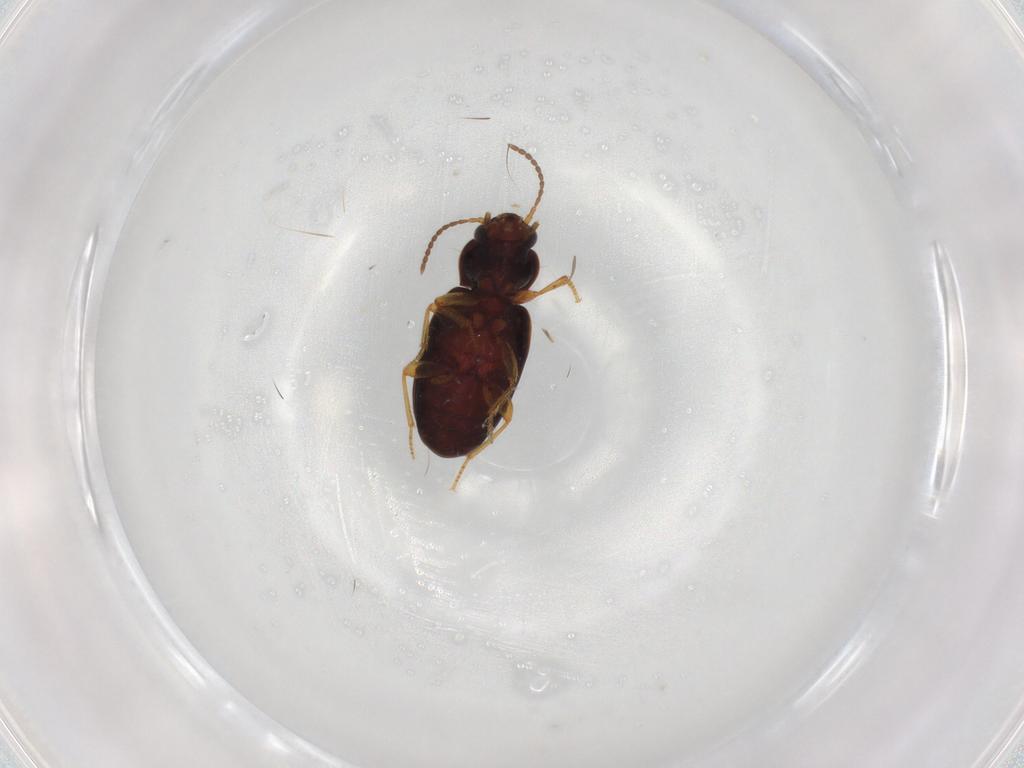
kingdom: Animalia
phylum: Arthropoda
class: Insecta
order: Coleoptera
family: Carabidae
